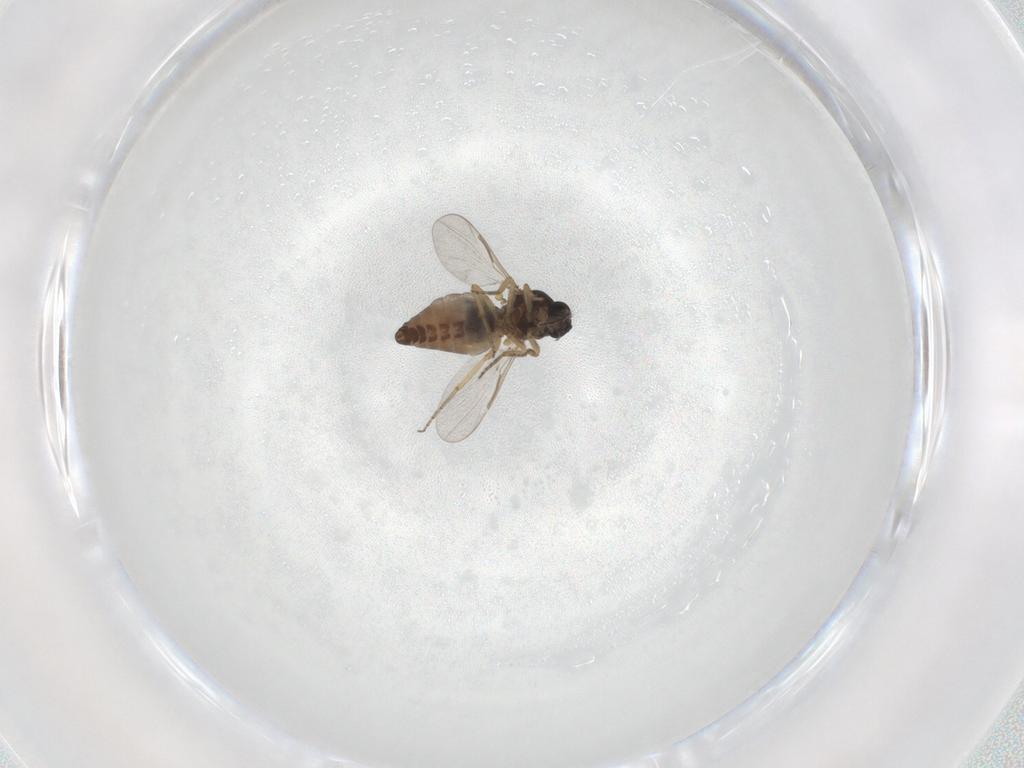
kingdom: Animalia
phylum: Arthropoda
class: Insecta
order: Diptera
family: Ceratopogonidae
